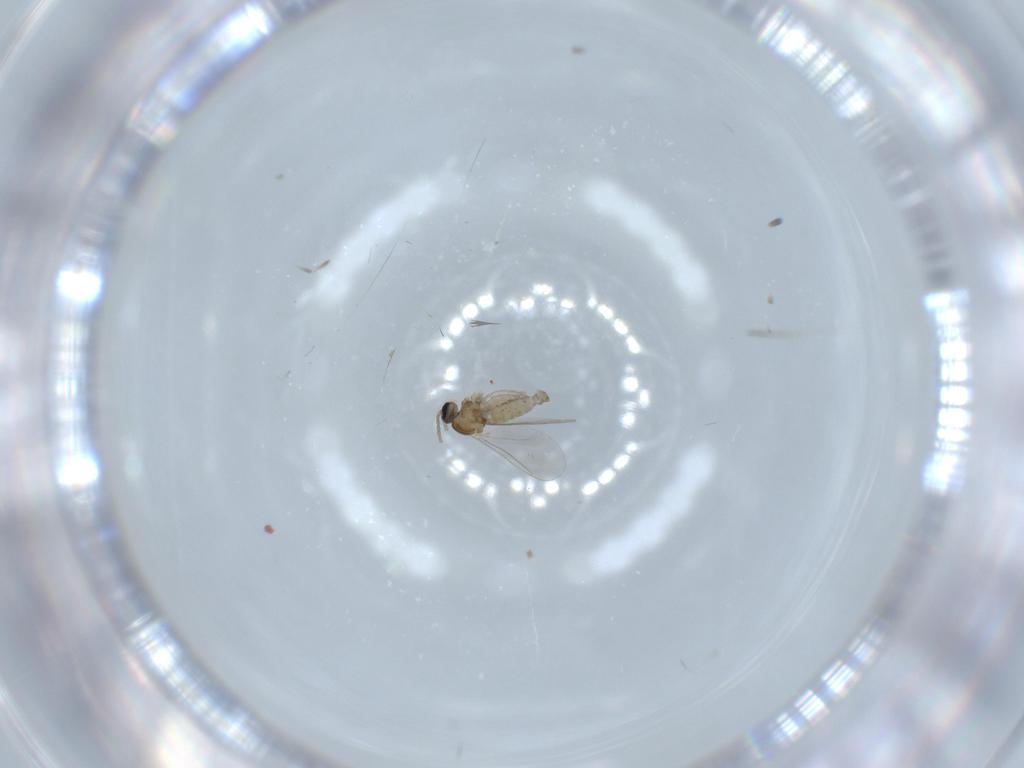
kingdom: Animalia
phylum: Arthropoda
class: Insecta
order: Diptera
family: Cecidomyiidae
